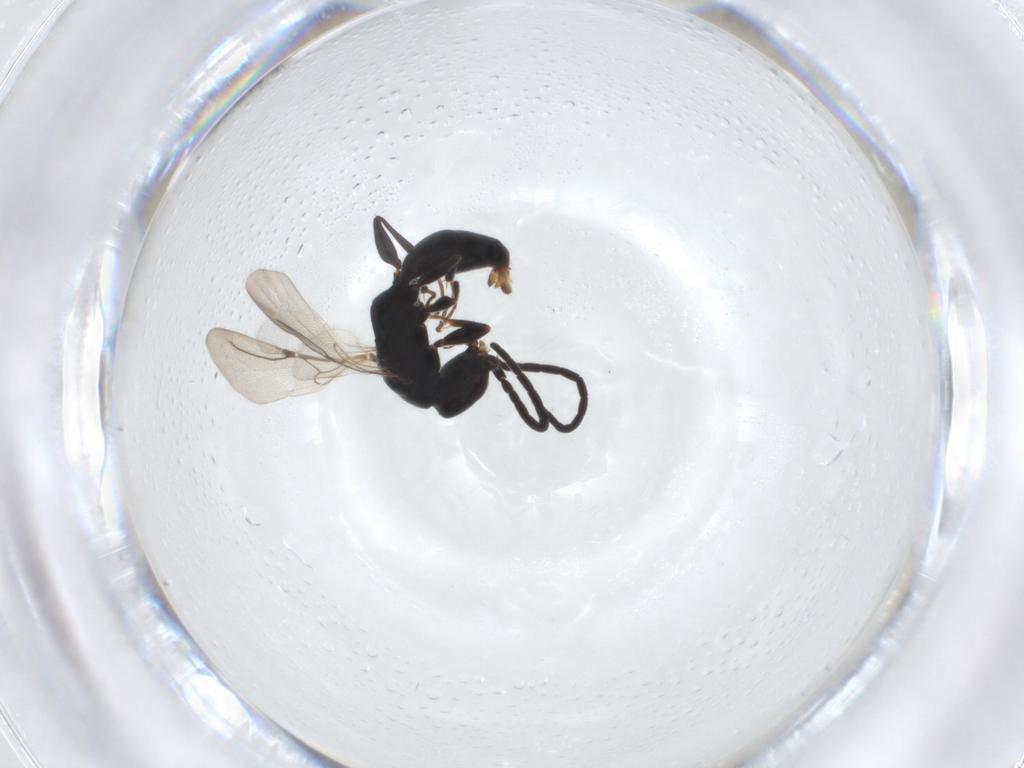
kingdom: Animalia
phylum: Arthropoda
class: Insecta
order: Hymenoptera
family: Bethylidae
